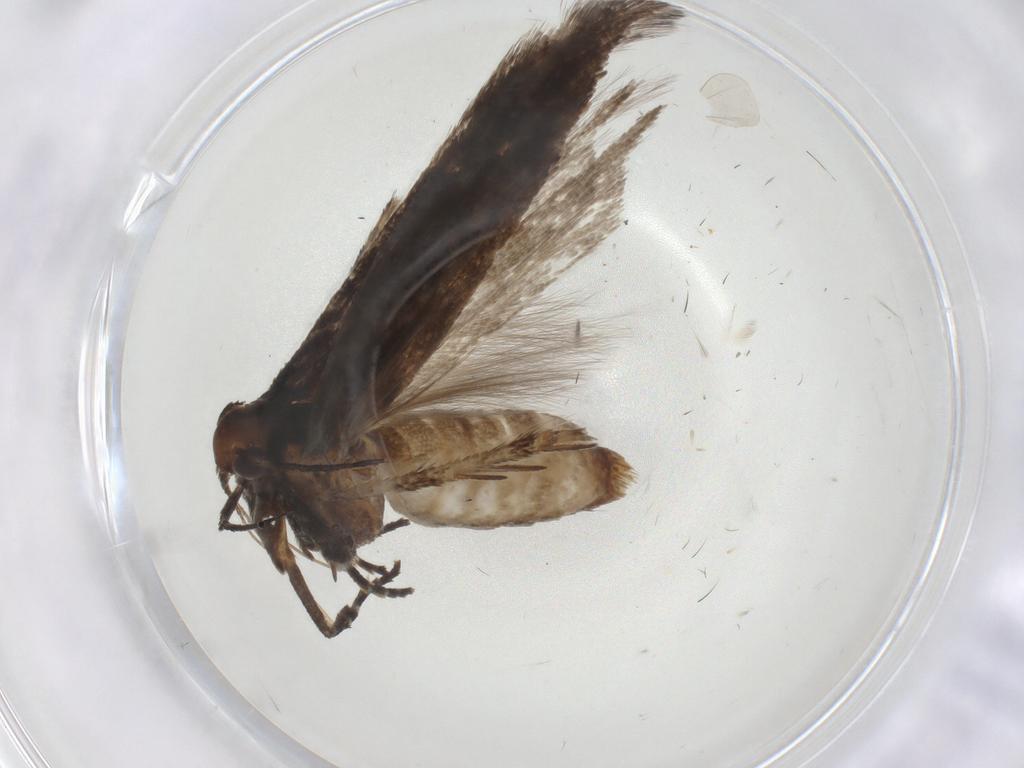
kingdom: Animalia
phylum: Arthropoda
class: Insecta
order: Lepidoptera
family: Gelechiidae
